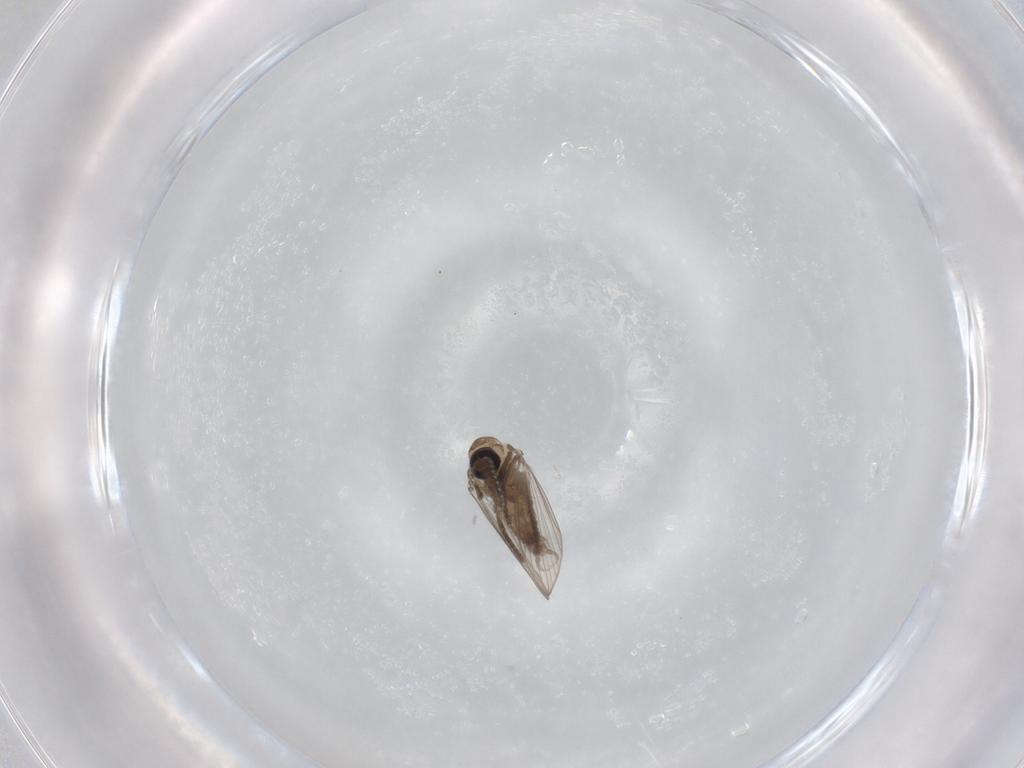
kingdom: Animalia
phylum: Arthropoda
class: Insecta
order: Diptera
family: Psychodidae
